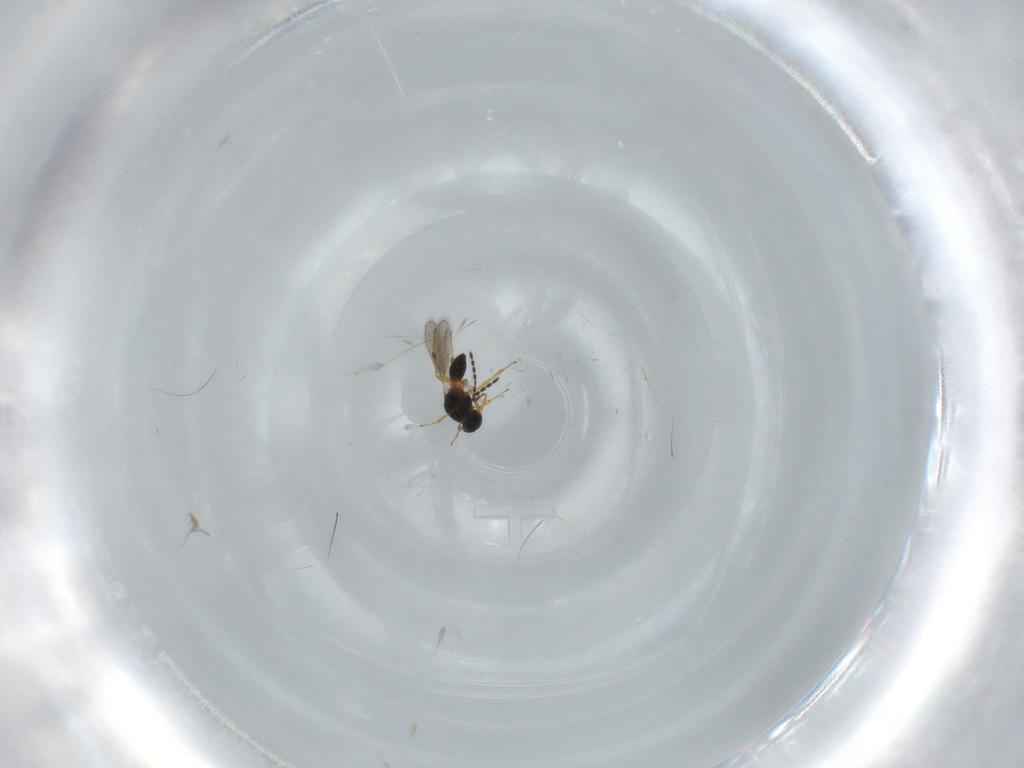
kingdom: Animalia
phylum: Arthropoda
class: Insecta
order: Hymenoptera
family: Platygastridae
